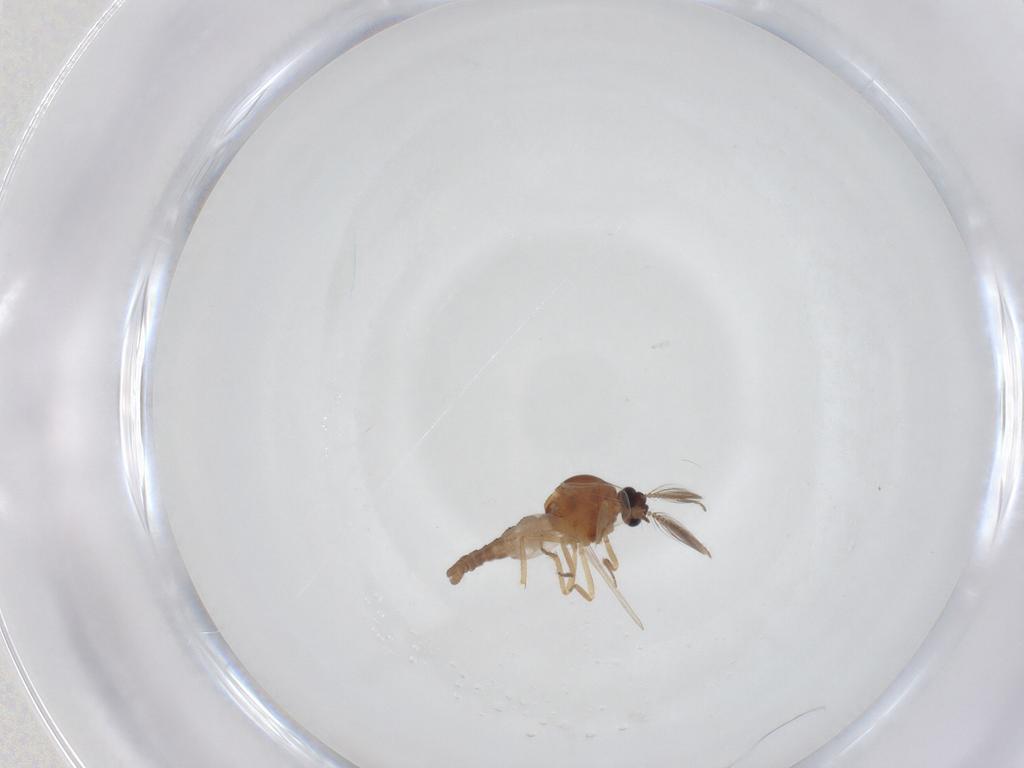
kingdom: Animalia
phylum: Arthropoda
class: Insecta
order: Diptera
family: Ceratopogonidae
